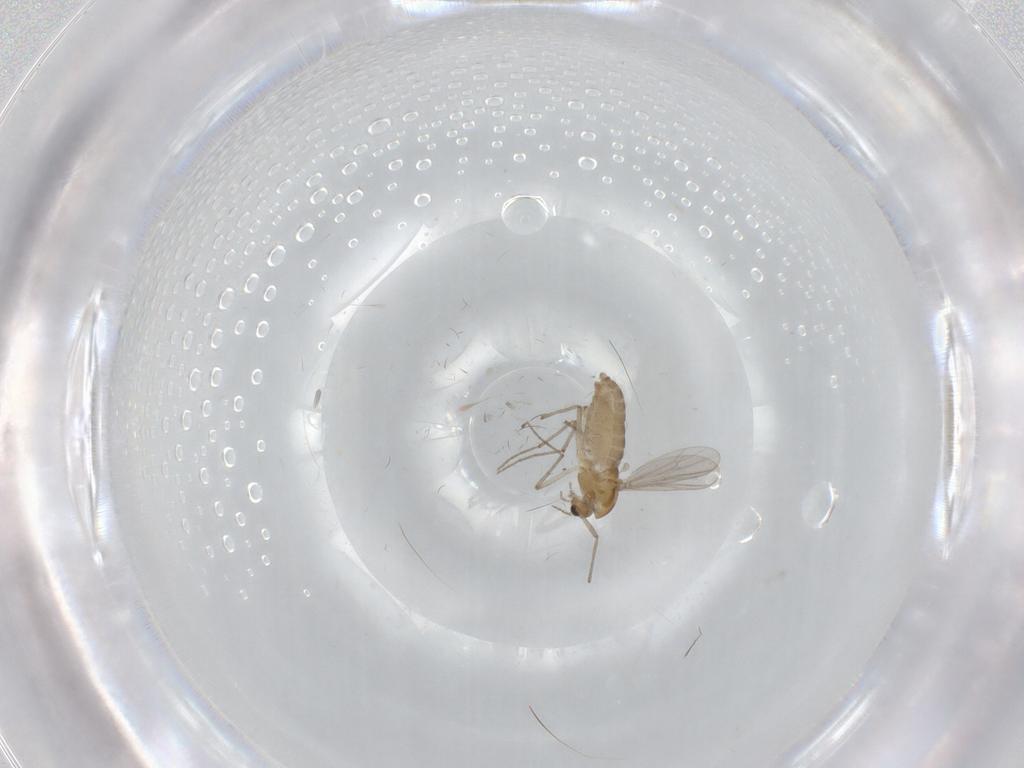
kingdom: Animalia
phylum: Arthropoda
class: Insecta
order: Diptera
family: Chironomidae
